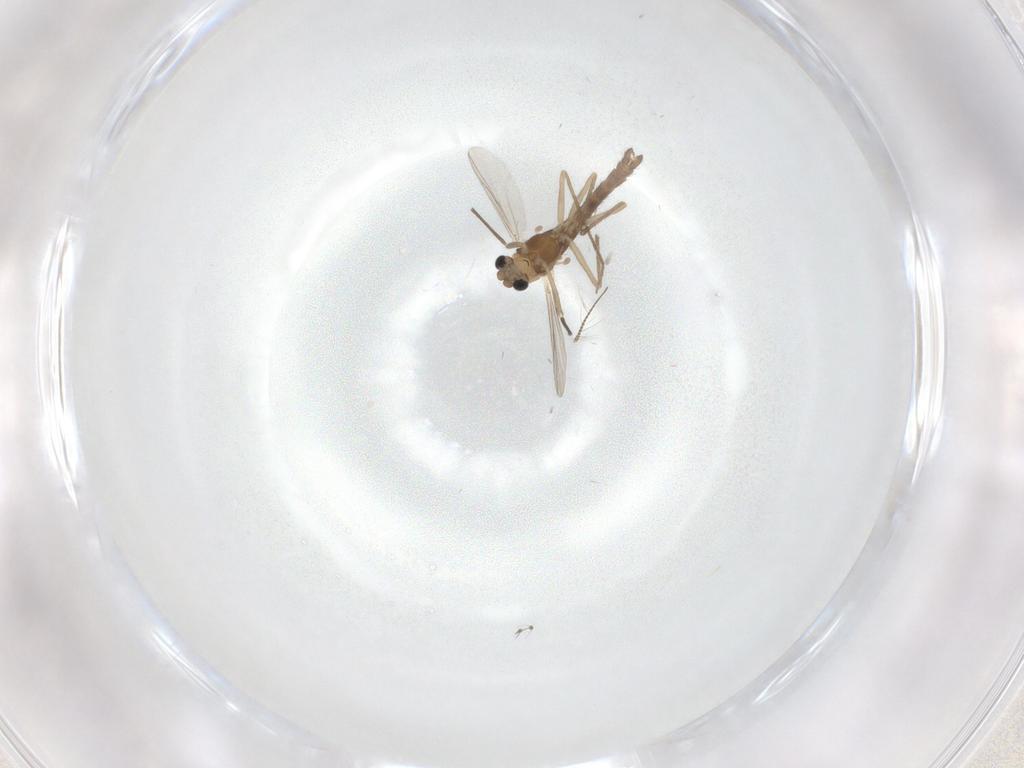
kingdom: Animalia
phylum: Arthropoda
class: Insecta
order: Diptera
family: Chironomidae
